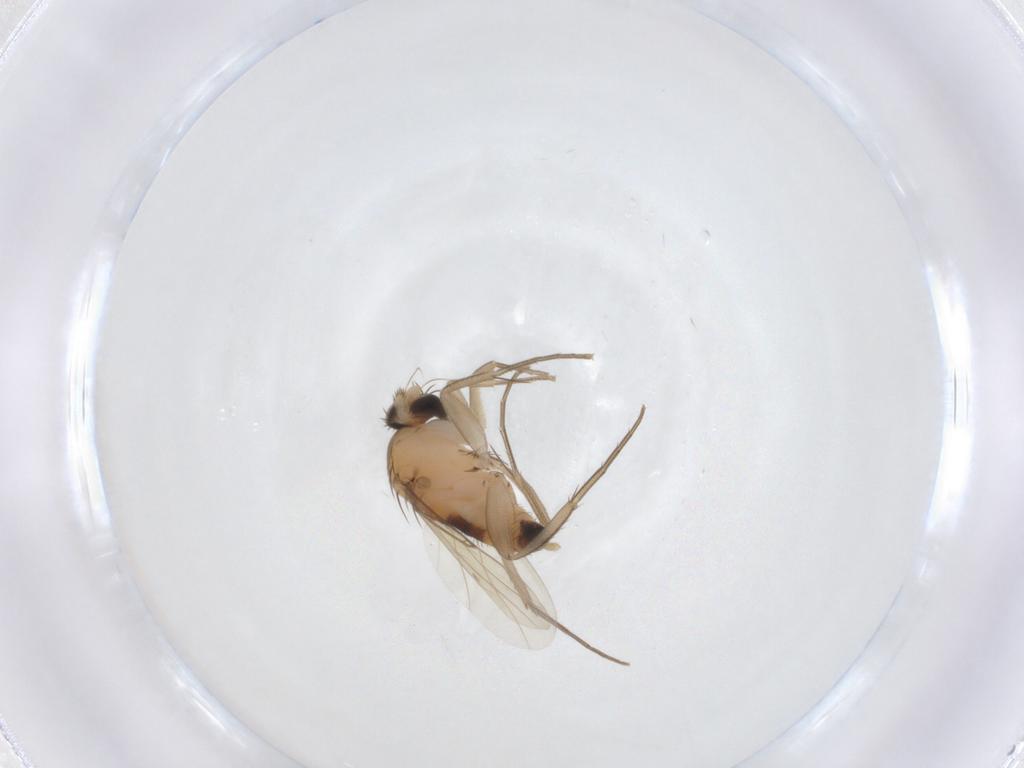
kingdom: Animalia
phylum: Arthropoda
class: Insecta
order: Diptera
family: Phoridae
